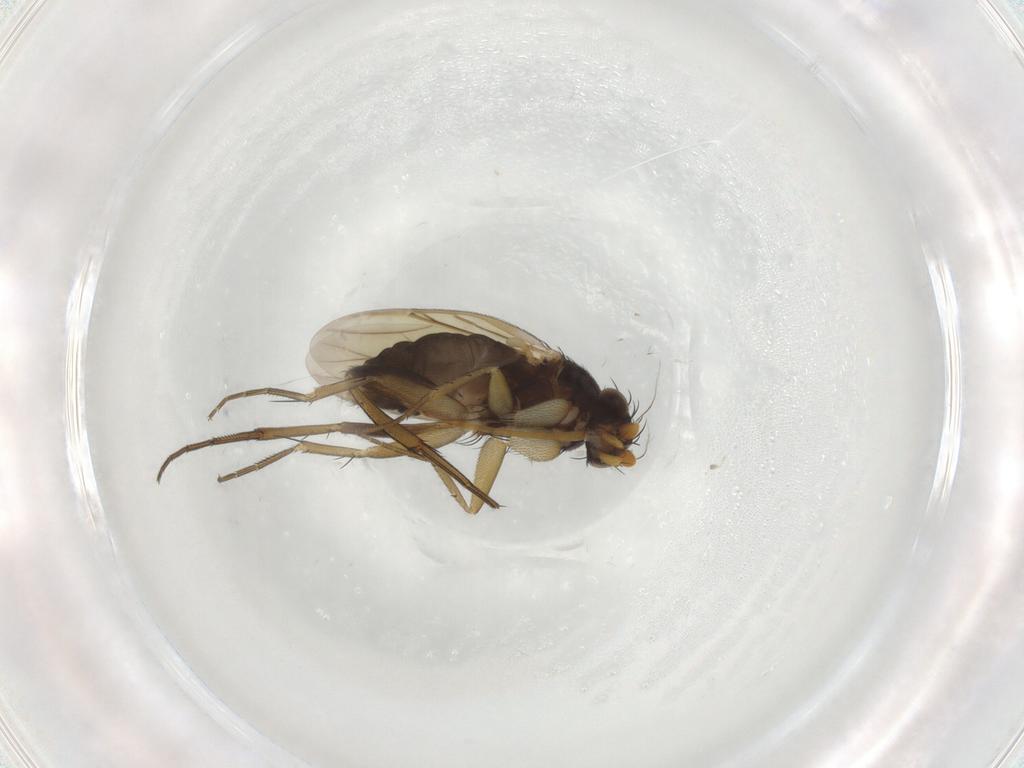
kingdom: Animalia
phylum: Arthropoda
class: Insecta
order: Diptera
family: Phoridae
